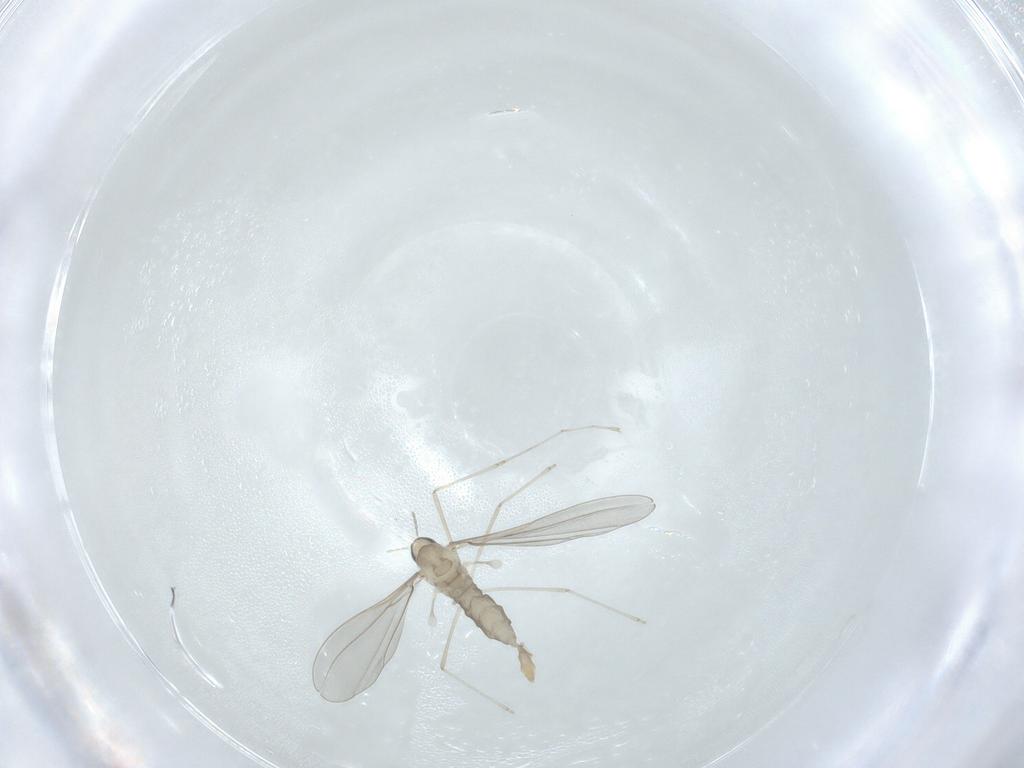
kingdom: Animalia
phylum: Arthropoda
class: Insecta
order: Diptera
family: Cecidomyiidae
